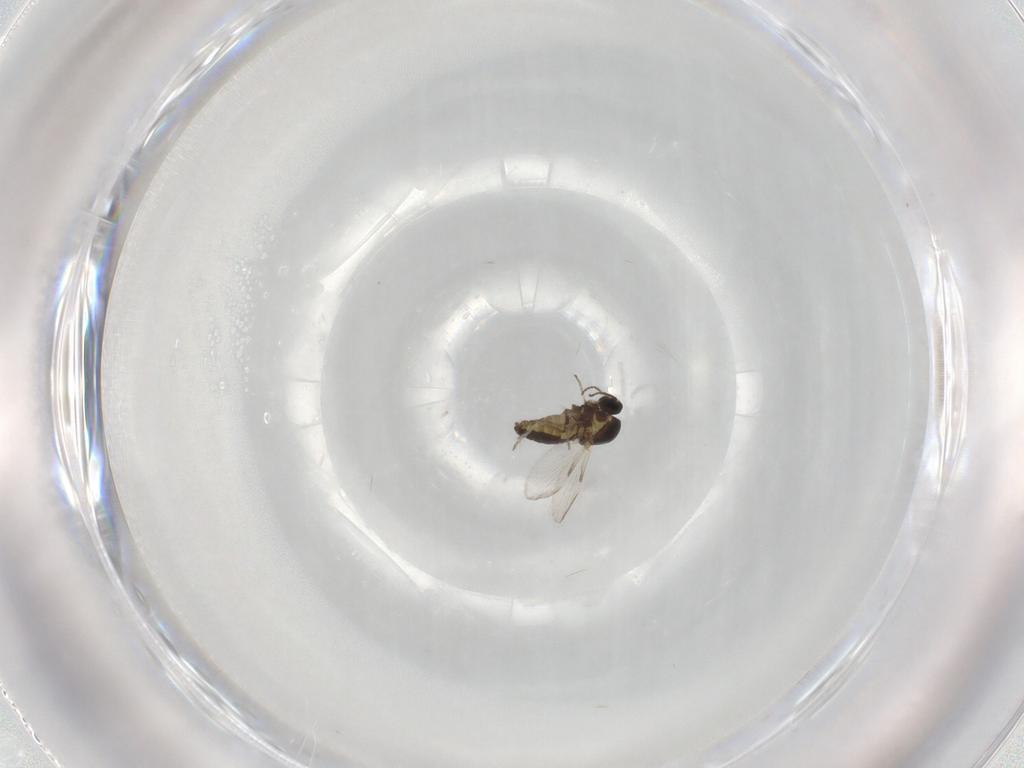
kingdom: Animalia
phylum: Arthropoda
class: Insecta
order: Diptera
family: Ceratopogonidae
